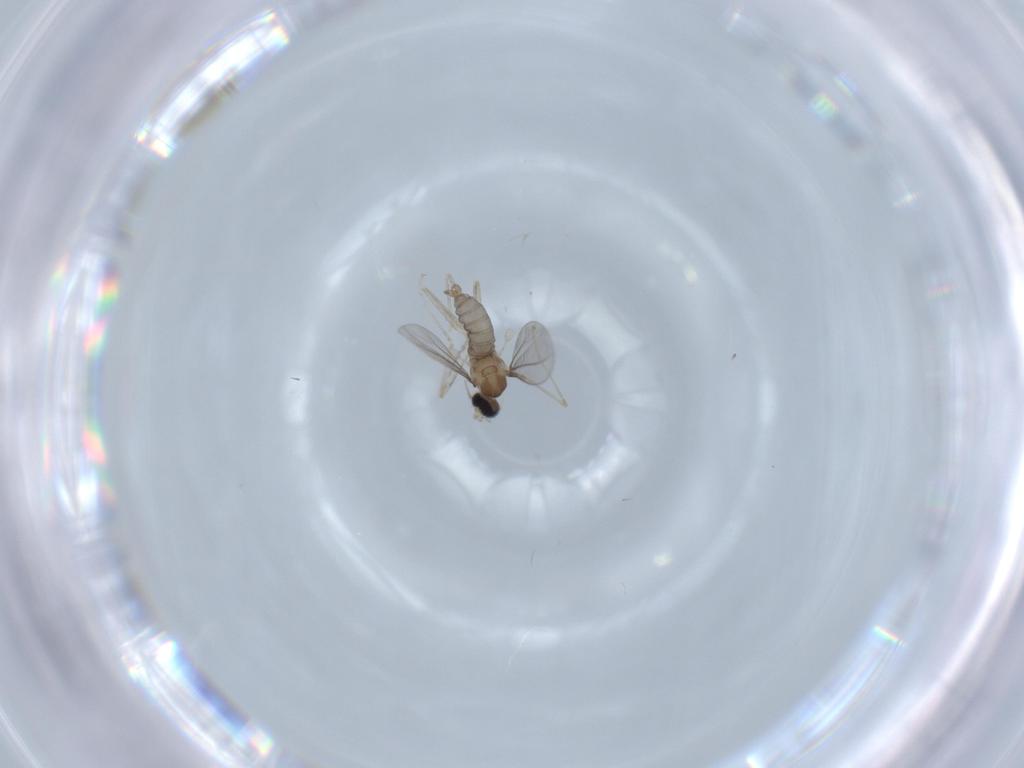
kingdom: Animalia
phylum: Arthropoda
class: Insecta
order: Diptera
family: Cecidomyiidae
